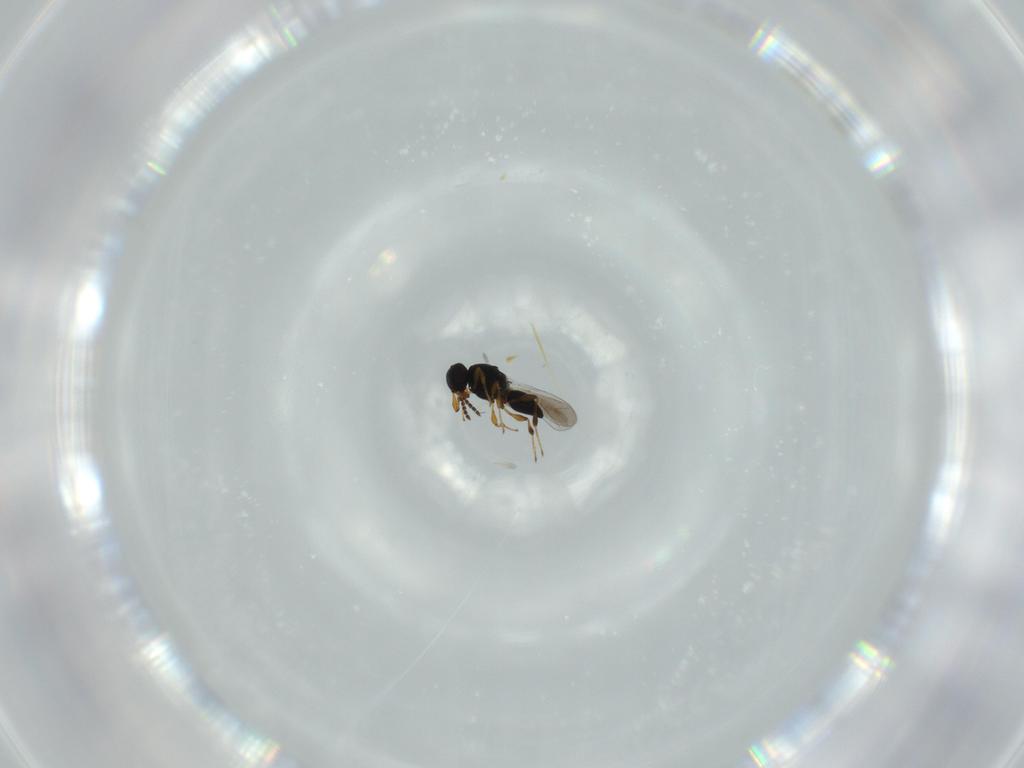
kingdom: Animalia
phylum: Arthropoda
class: Insecta
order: Hymenoptera
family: Platygastridae
